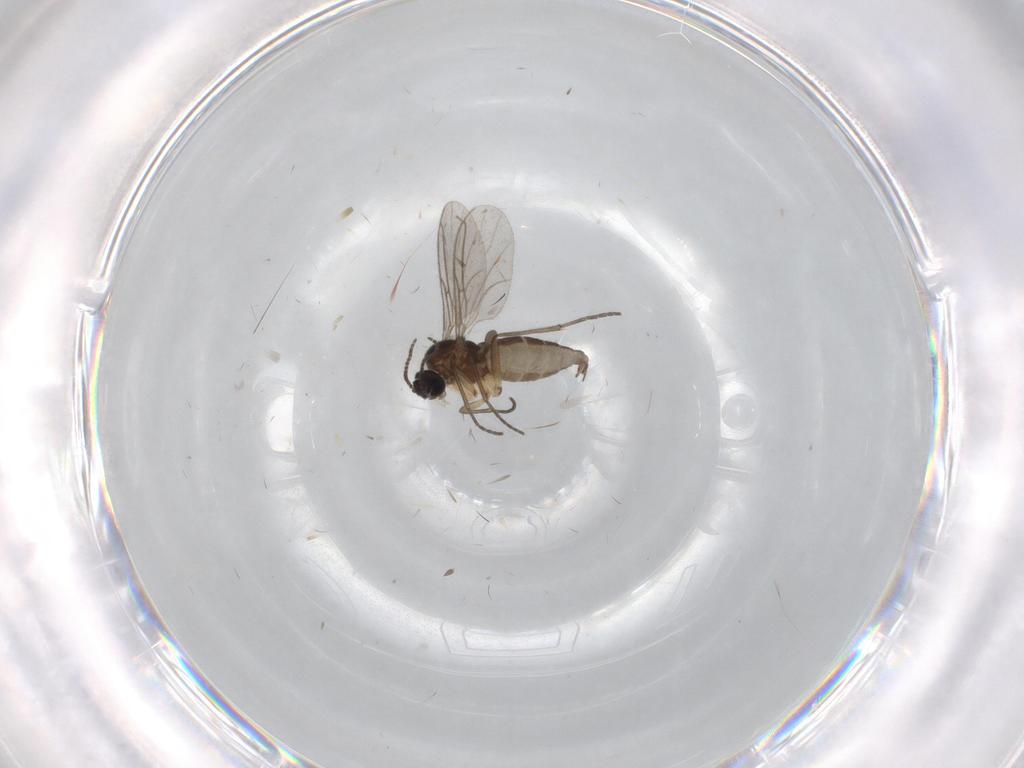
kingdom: Animalia
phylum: Arthropoda
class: Insecta
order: Diptera
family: Sciaridae
